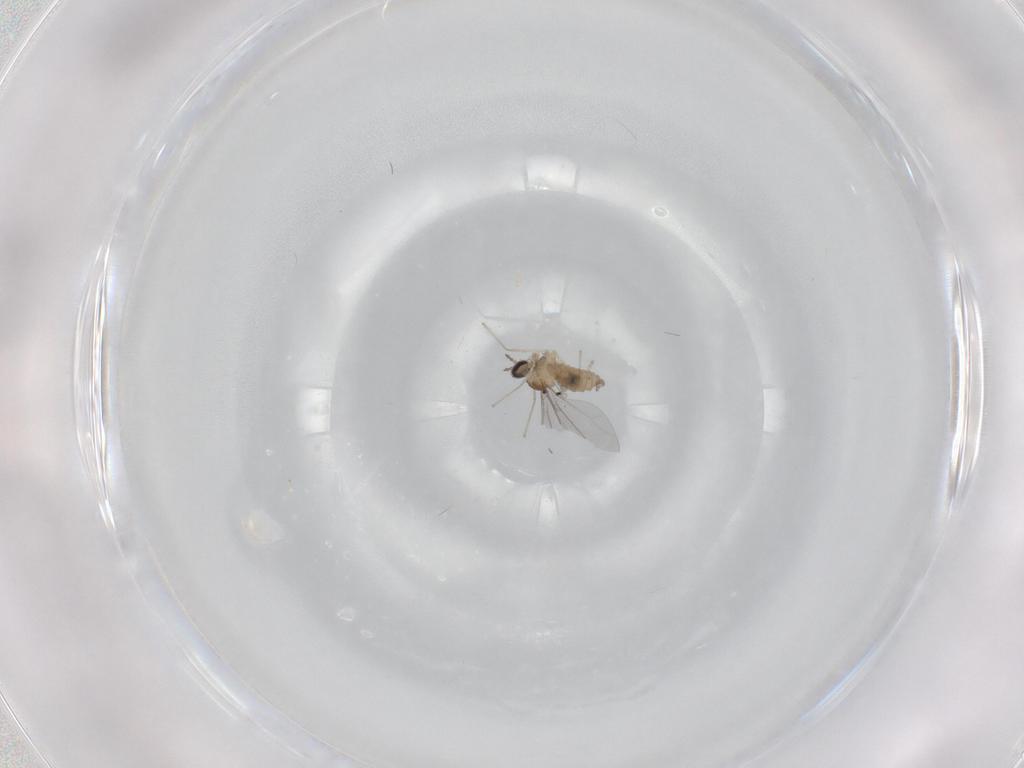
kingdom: Animalia
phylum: Arthropoda
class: Insecta
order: Diptera
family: Cecidomyiidae
